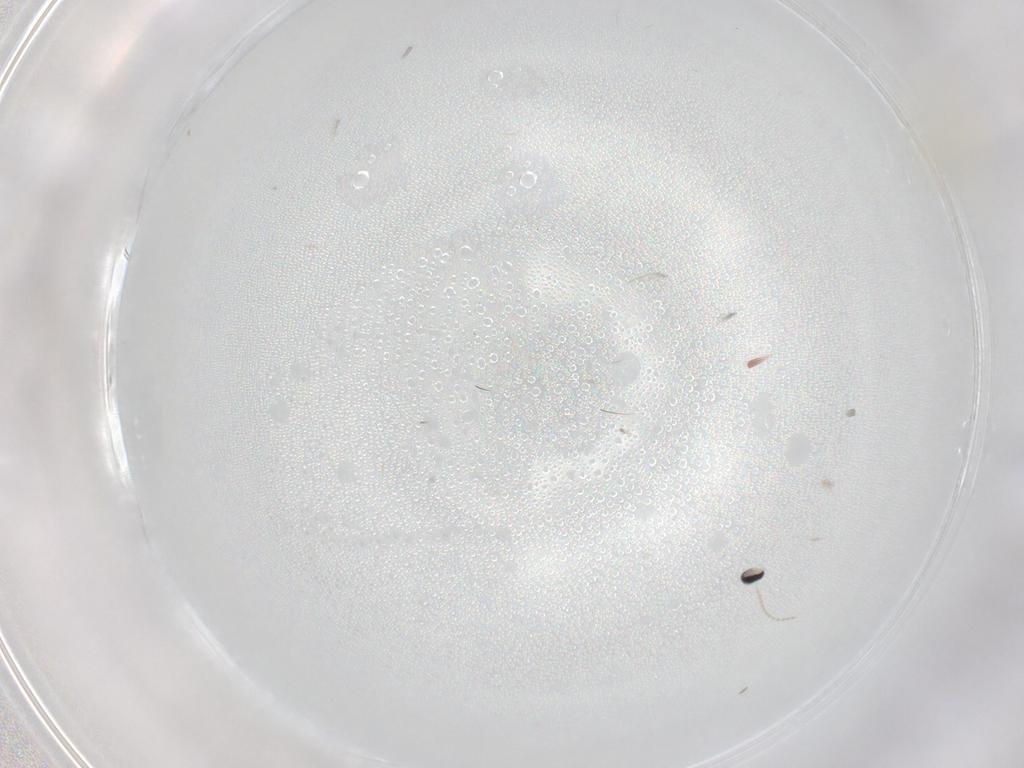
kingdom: Animalia
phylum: Arthropoda
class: Insecta
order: Diptera
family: Cecidomyiidae
